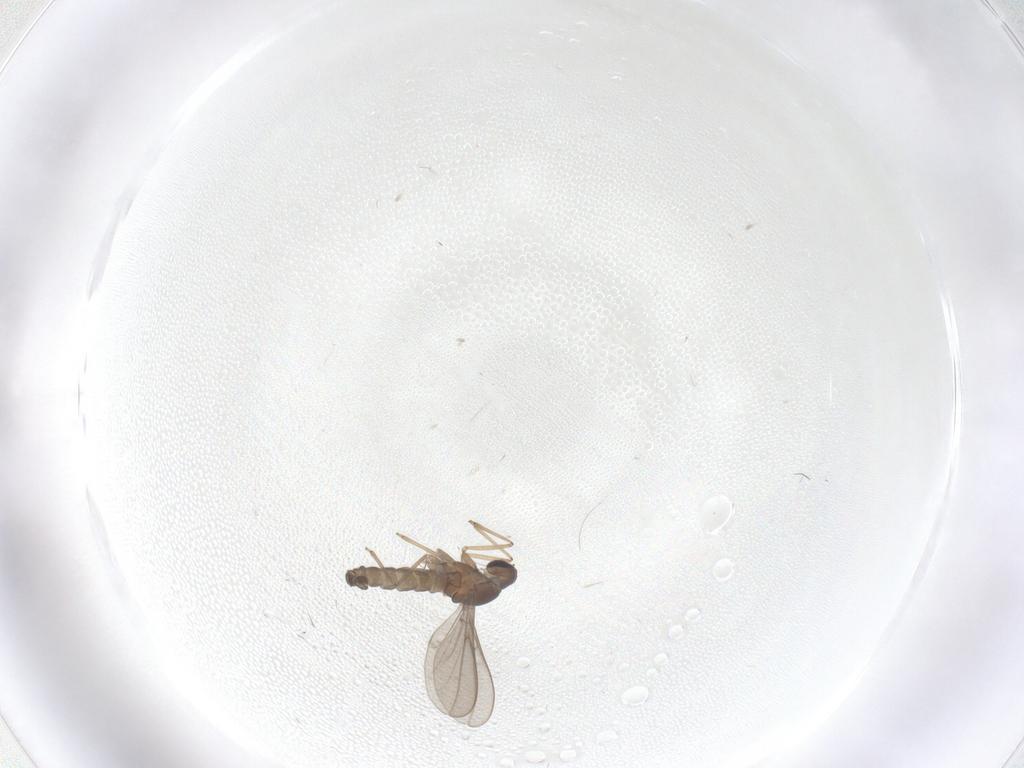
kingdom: Animalia
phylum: Arthropoda
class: Insecta
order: Diptera
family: Cecidomyiidae
